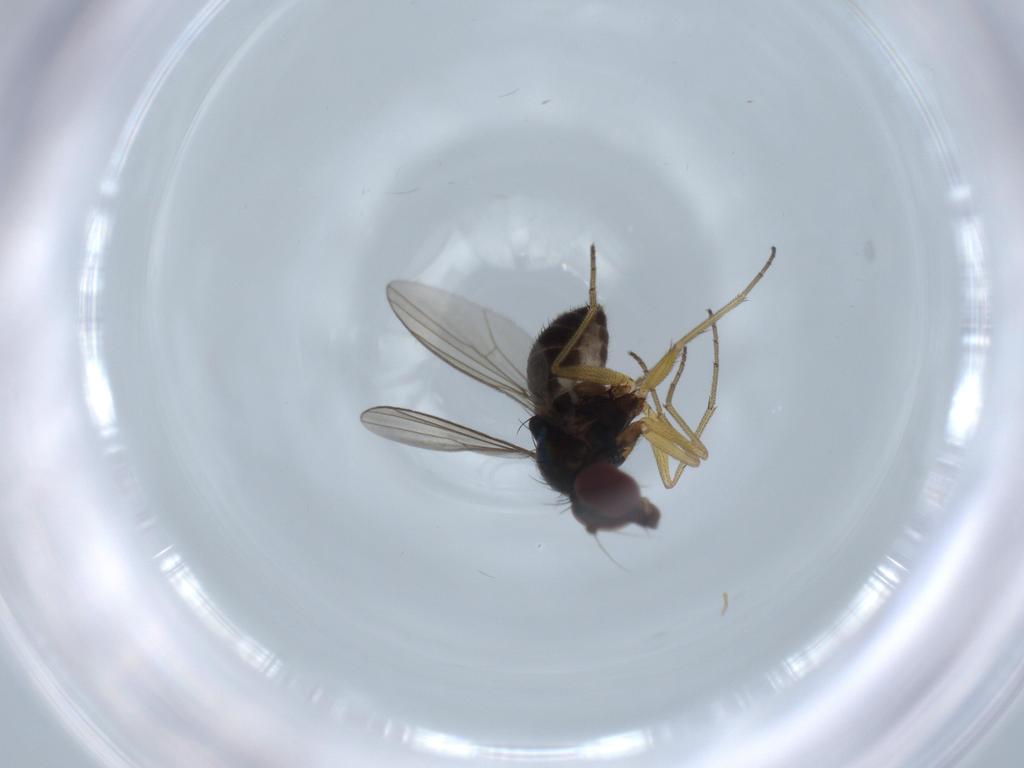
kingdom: Animalia
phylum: Arthropoda
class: Insecta
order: Diptera
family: Dolichopodidae
